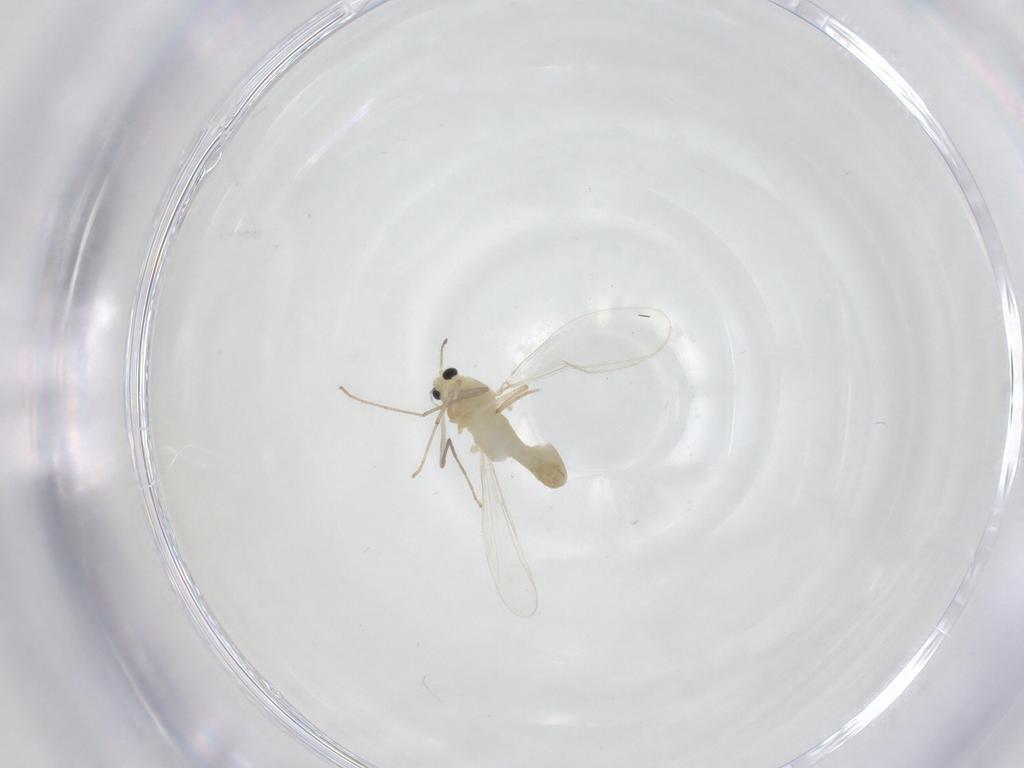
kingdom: Animalia
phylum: Arthropoda
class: Insecta
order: Diptera
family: Chironomidae
